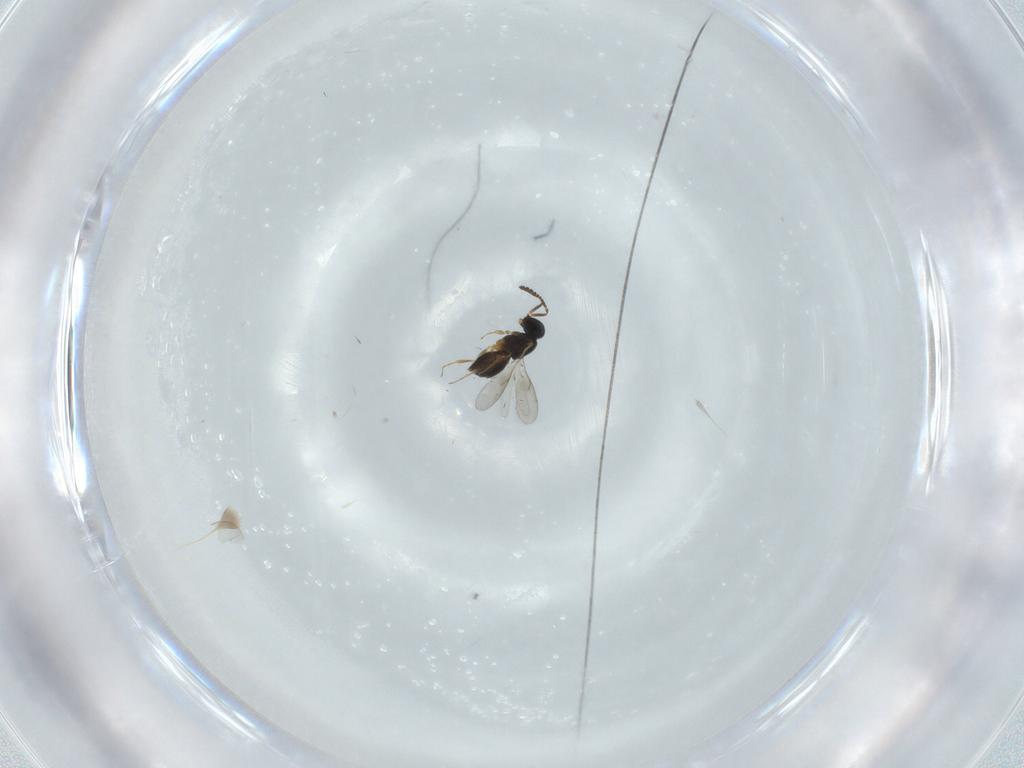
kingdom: Animalia
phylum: Arthropoda
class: Insecta
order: Hymenoptera
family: Scelionidae
